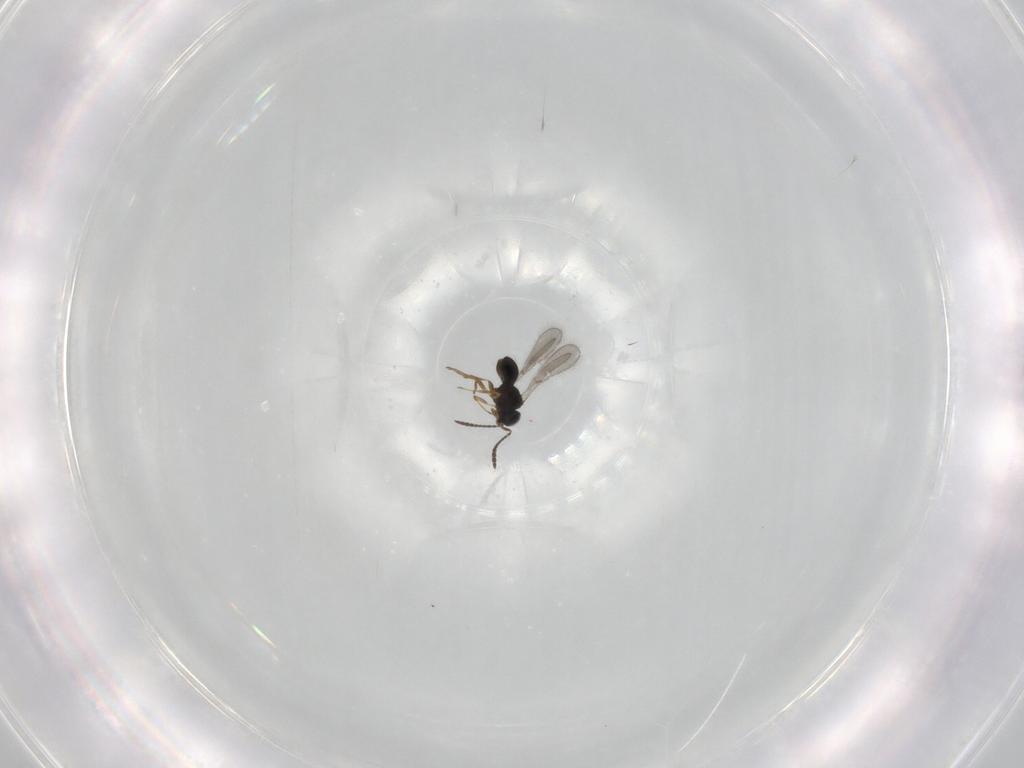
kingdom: Animalia
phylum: Arthropoda
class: Insecta
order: Hymenoptera
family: Scelionidae
